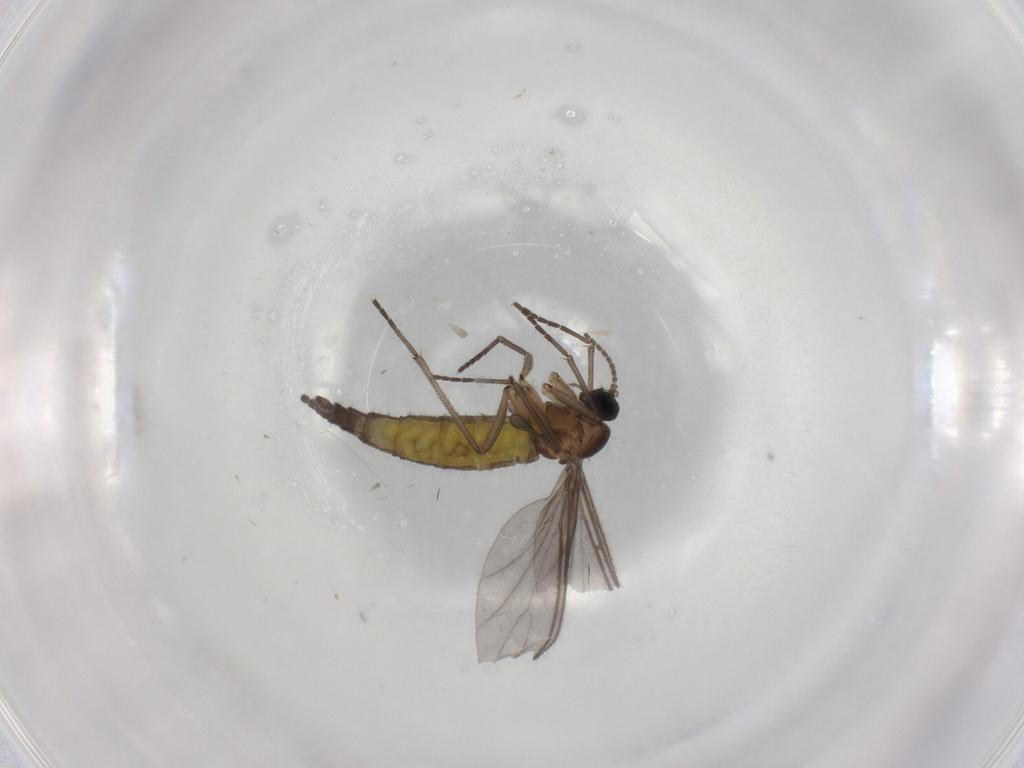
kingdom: Animalia
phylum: Arthropoda
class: Insecta
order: Diptera
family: Sciaridae
